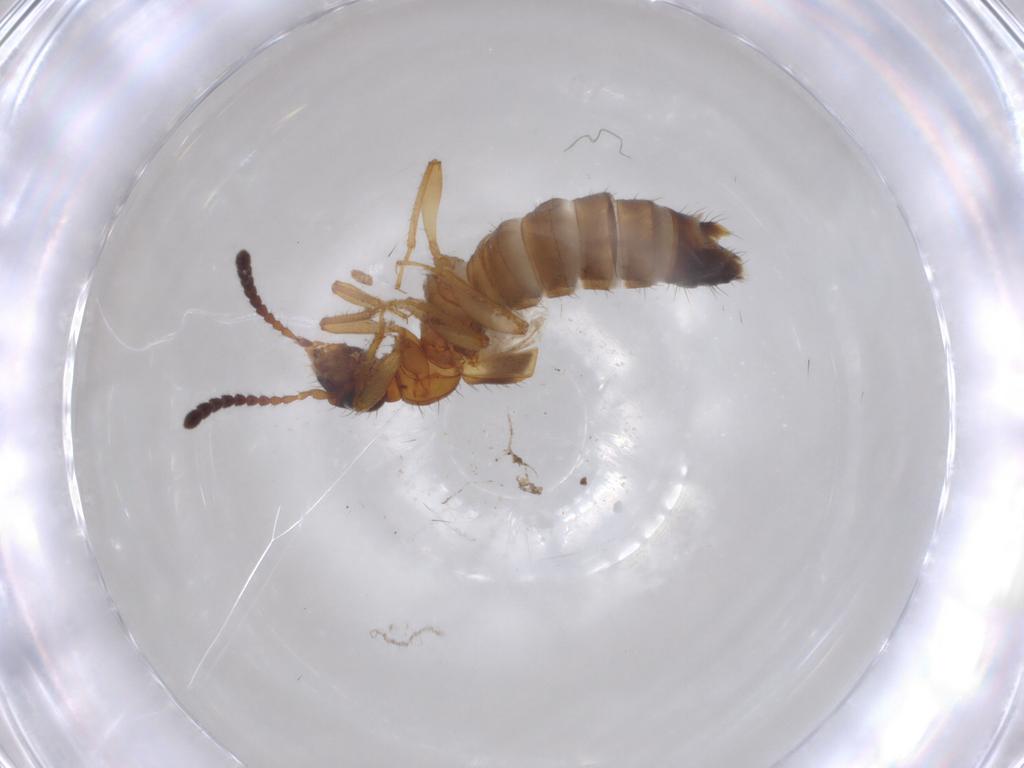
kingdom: Animalia
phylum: Arthropoda
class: Insecta
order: Coleoptera
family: Staphylinidae
